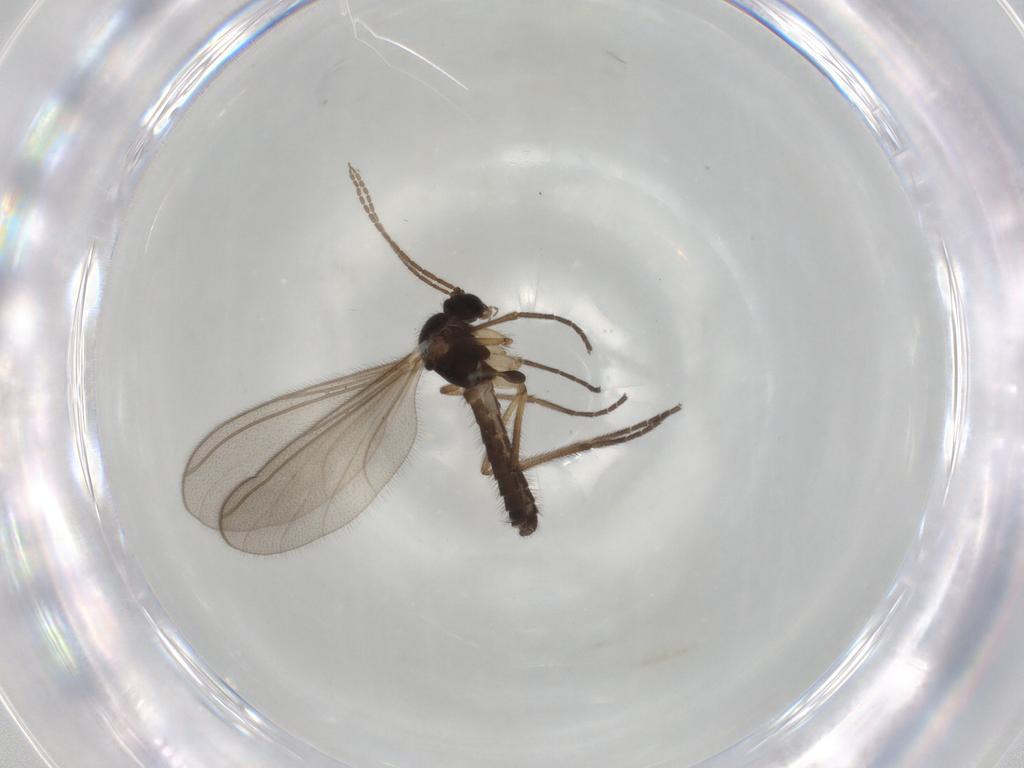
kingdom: Animalia
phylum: Arthropoda
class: Insecta
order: Diptera
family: Mycetophilidae
